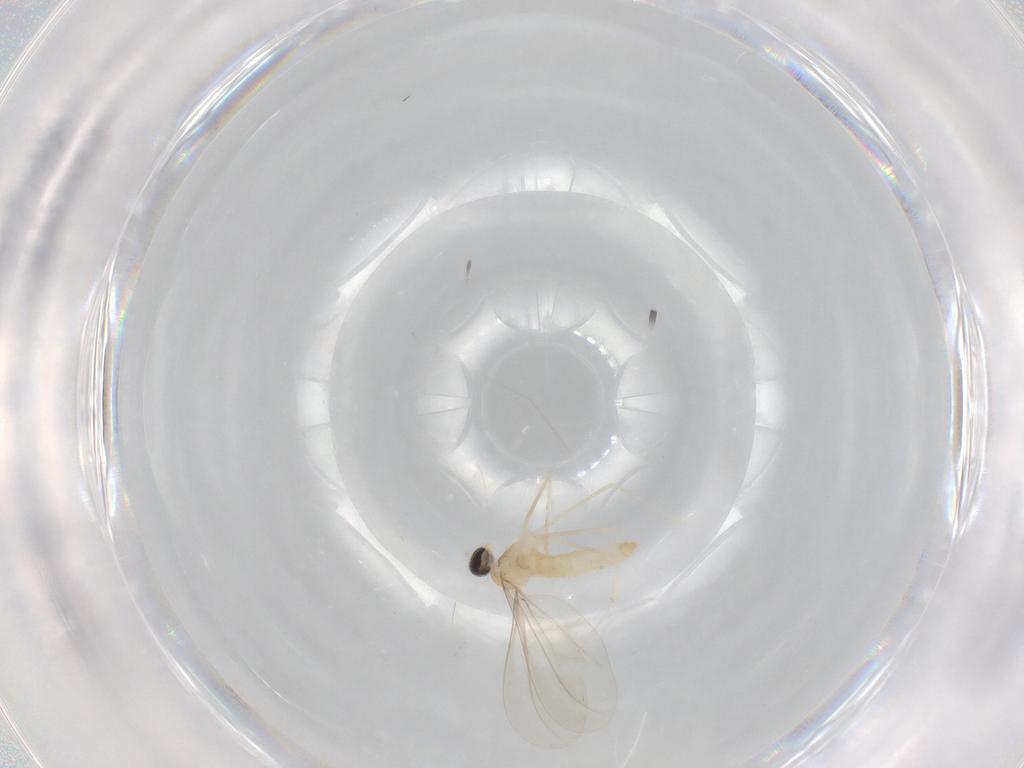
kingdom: Animalia
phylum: Arthropoda
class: Insecta
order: Diptera
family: Cecidomyiidae
